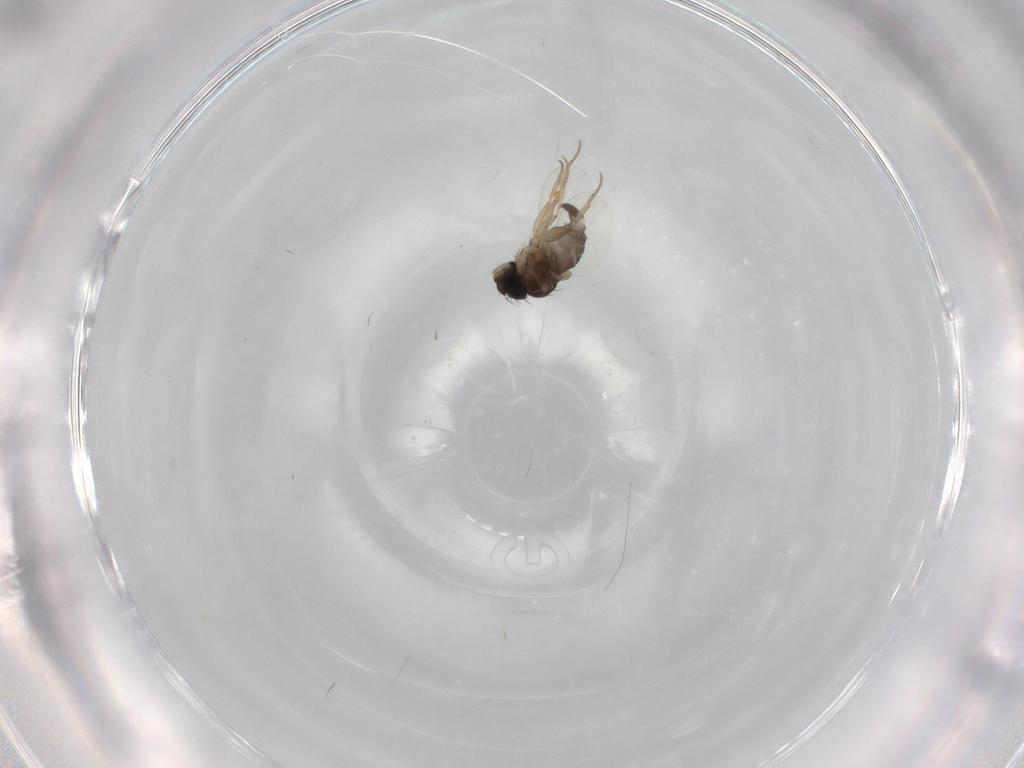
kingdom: Animalia
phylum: Arthropoda
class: Insecta
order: Diptera
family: Phoridae
